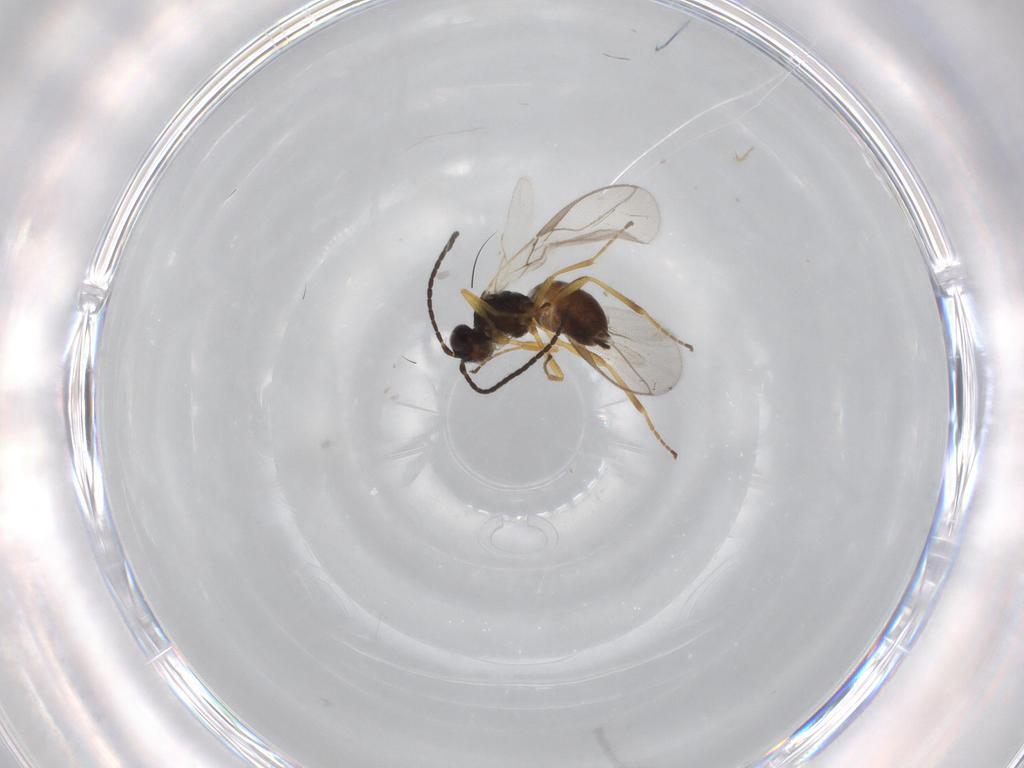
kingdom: Animalia
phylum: Arthropoda
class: Insecta
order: Hymenoptera
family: Braconidae
